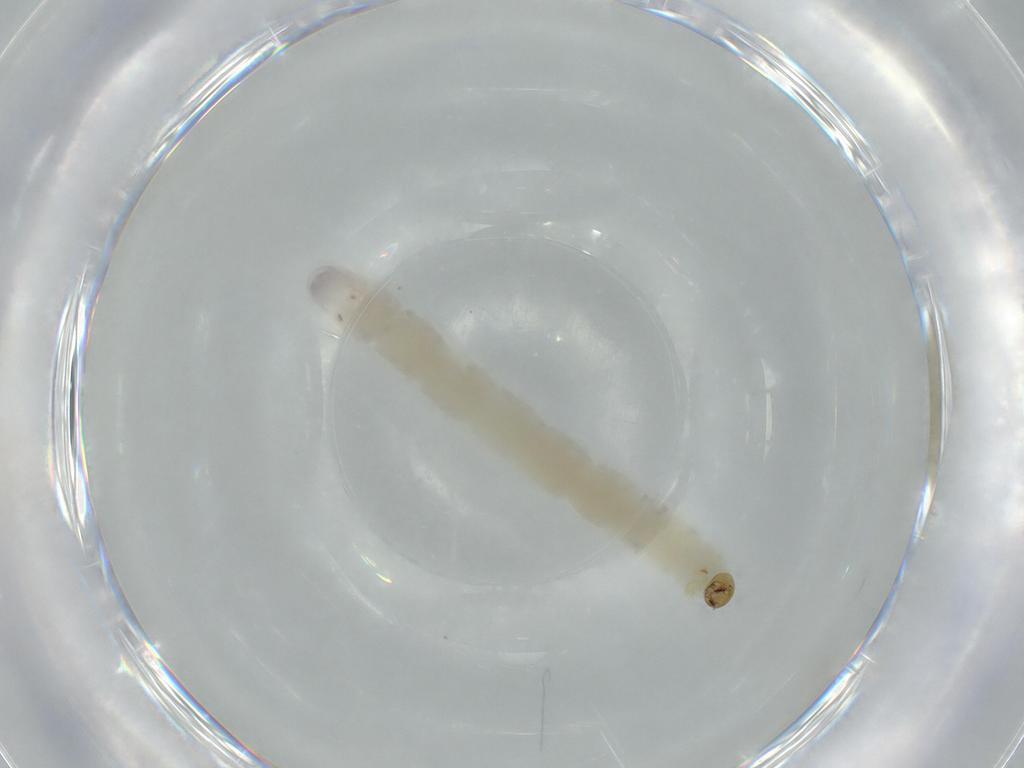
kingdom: Animalia
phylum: Arthropoda
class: Insecta
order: Diptera
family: Chironomidae
